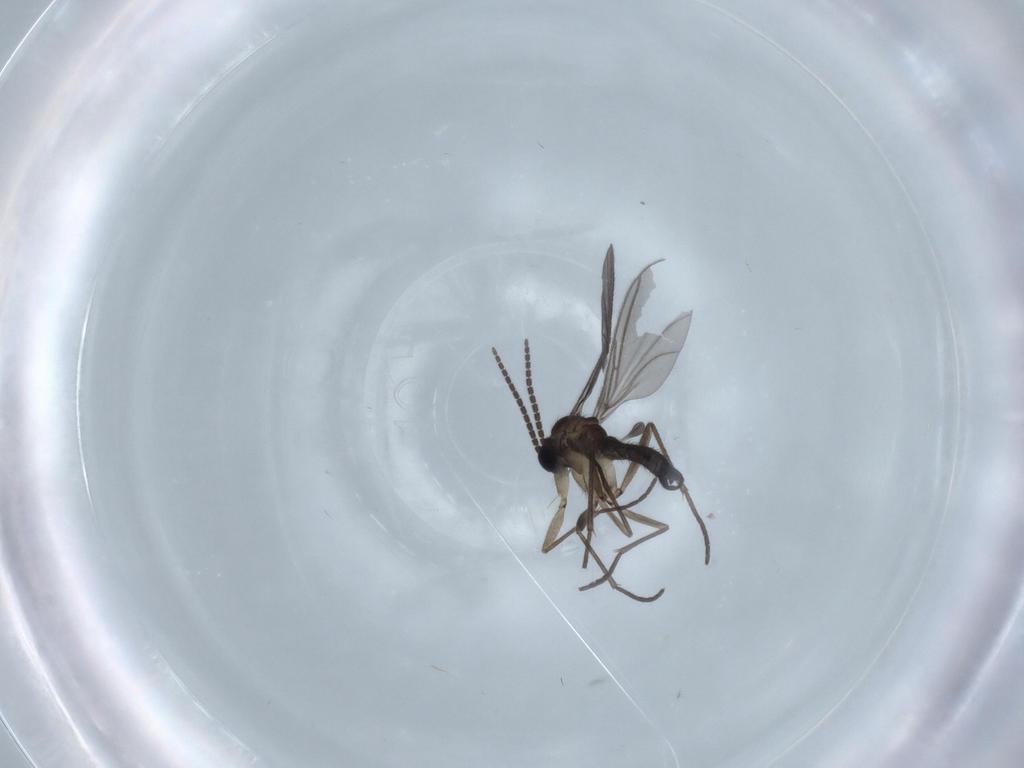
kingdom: Animalia
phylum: Arthropoda
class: Insecta
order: Diptera
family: Sciaridae
